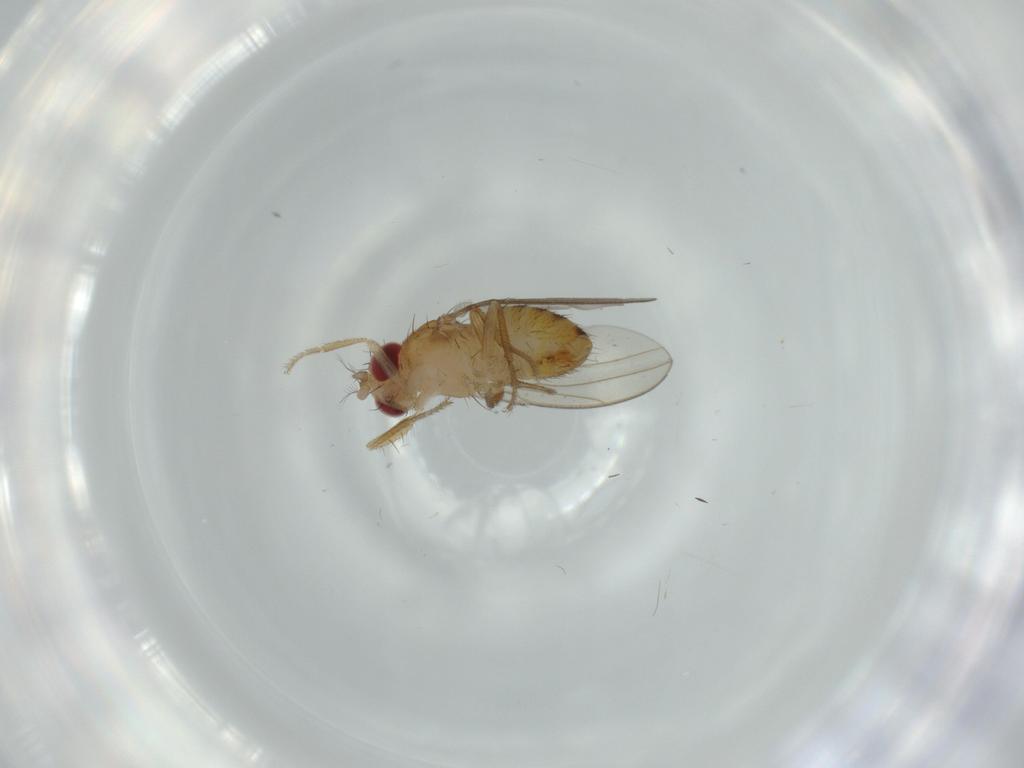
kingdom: Animalia
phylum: Arthropoda
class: Insecta
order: Diptera
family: Drosophilidae
